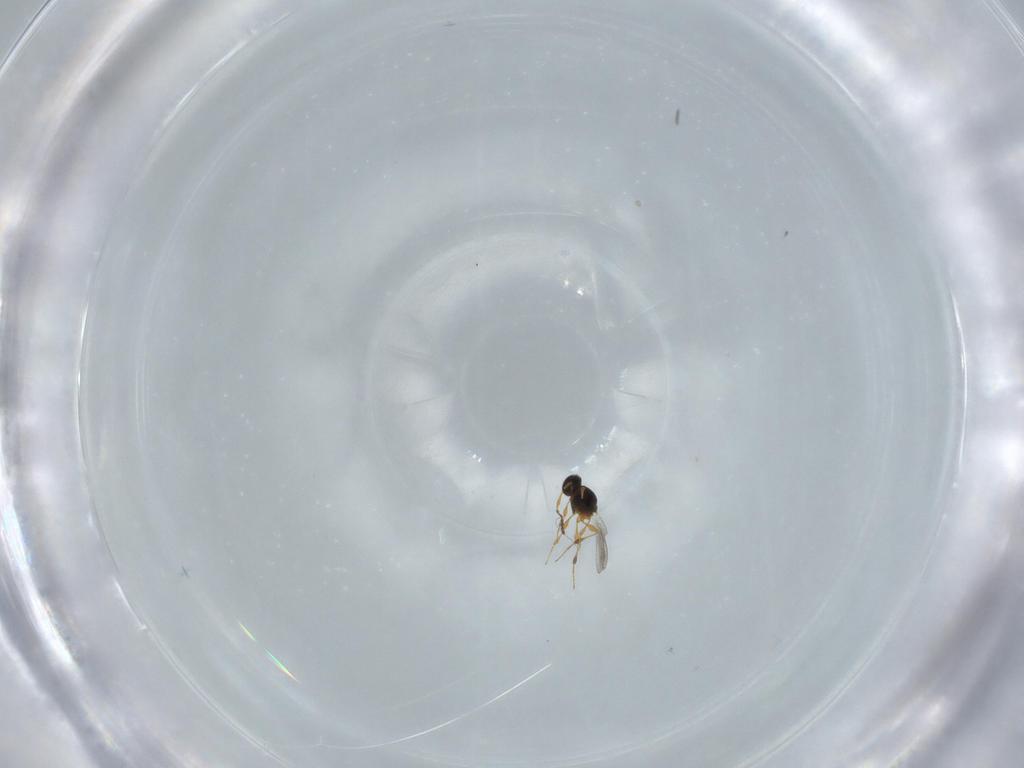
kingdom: Animalia
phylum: Arthropoda
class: Insecta
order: Hymenoptera
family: Platygastridae
